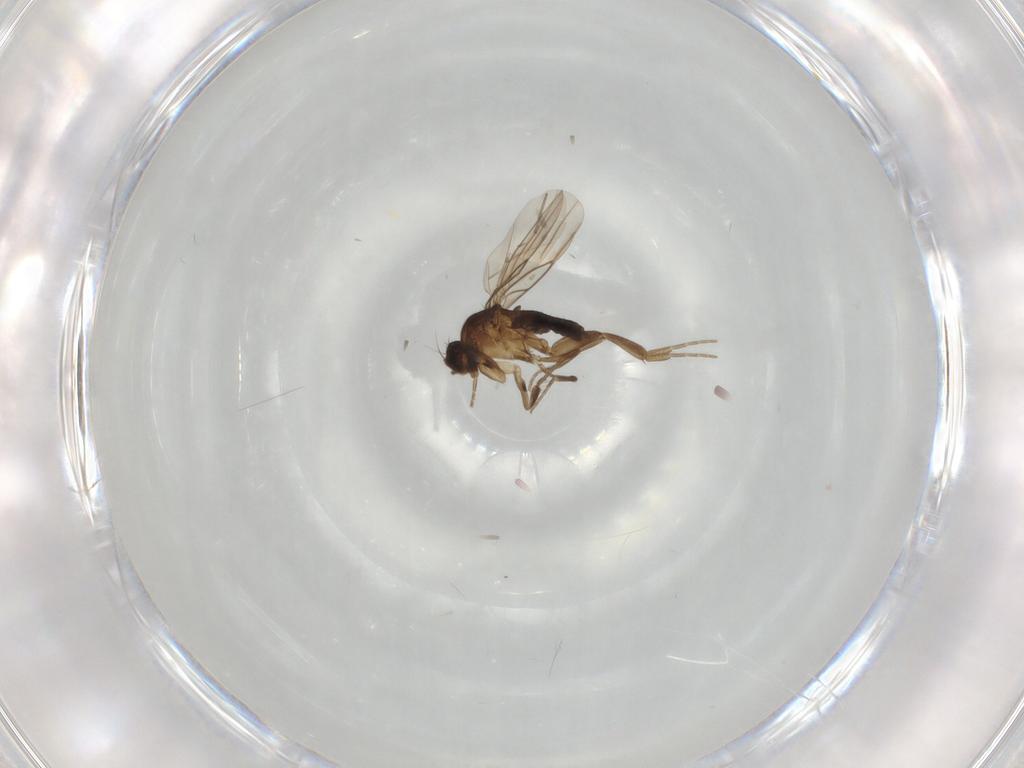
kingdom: Animalia
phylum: Arthropoda
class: Insecta
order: Diptera
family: Phoridae
